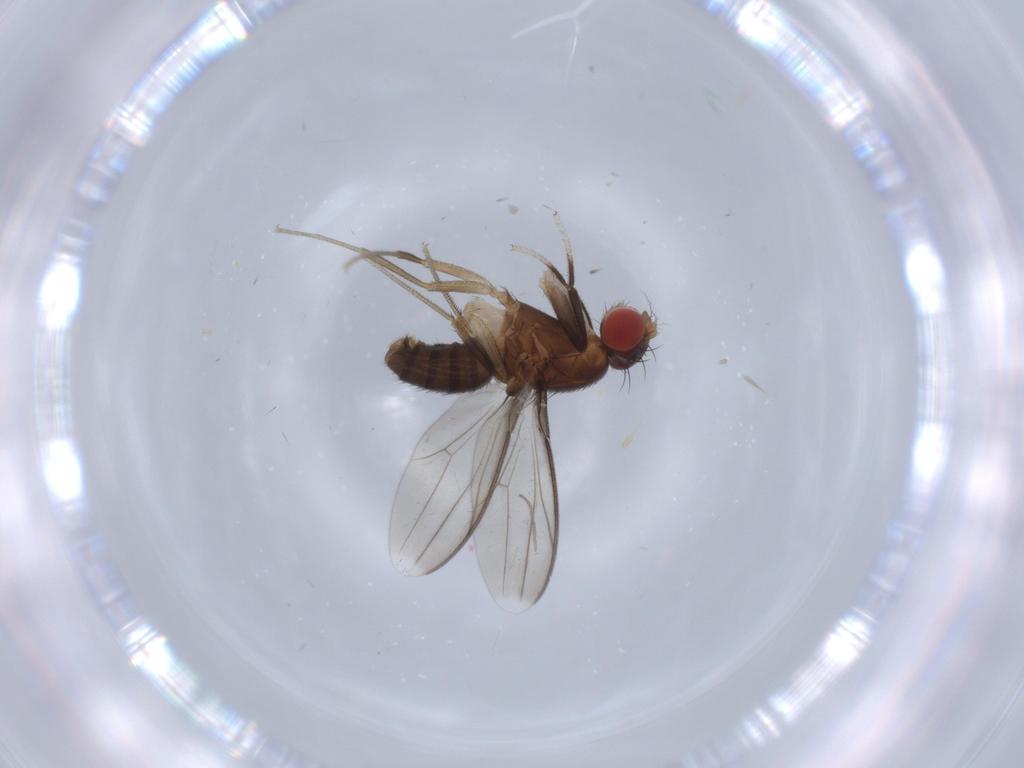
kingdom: Animalia
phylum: Arthropoda
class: Insecta
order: Diptera
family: Drosophilidae
